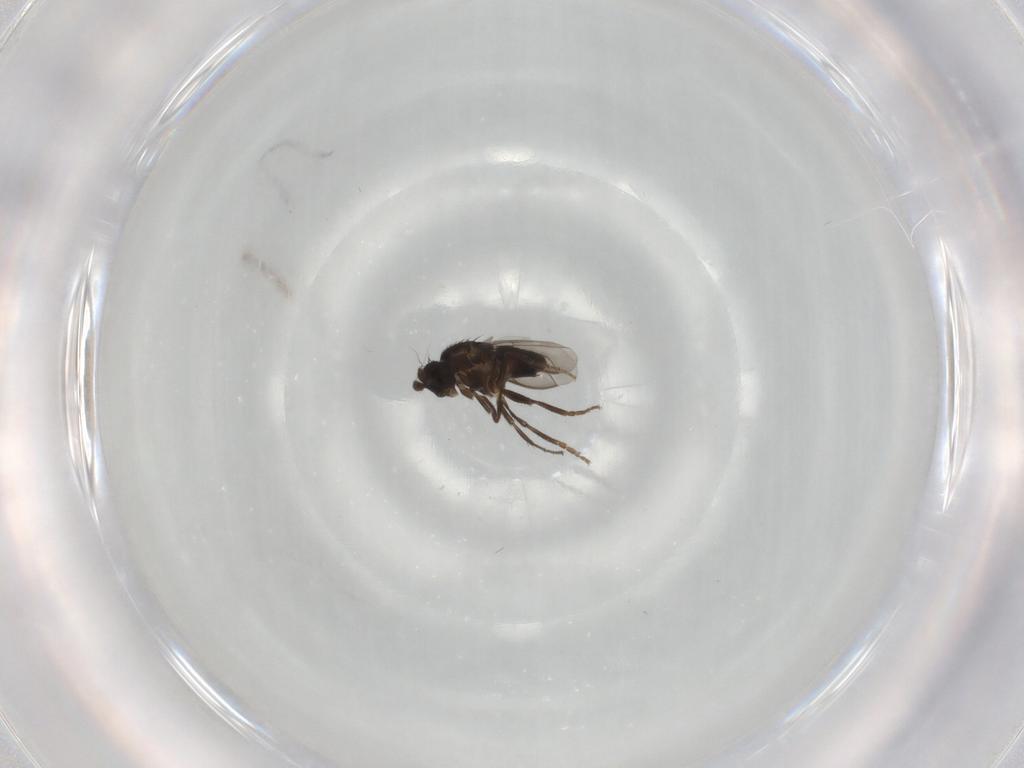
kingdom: Animalia
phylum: Arthropoda
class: Insecta
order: Diptera
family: Sphaeroceridae
